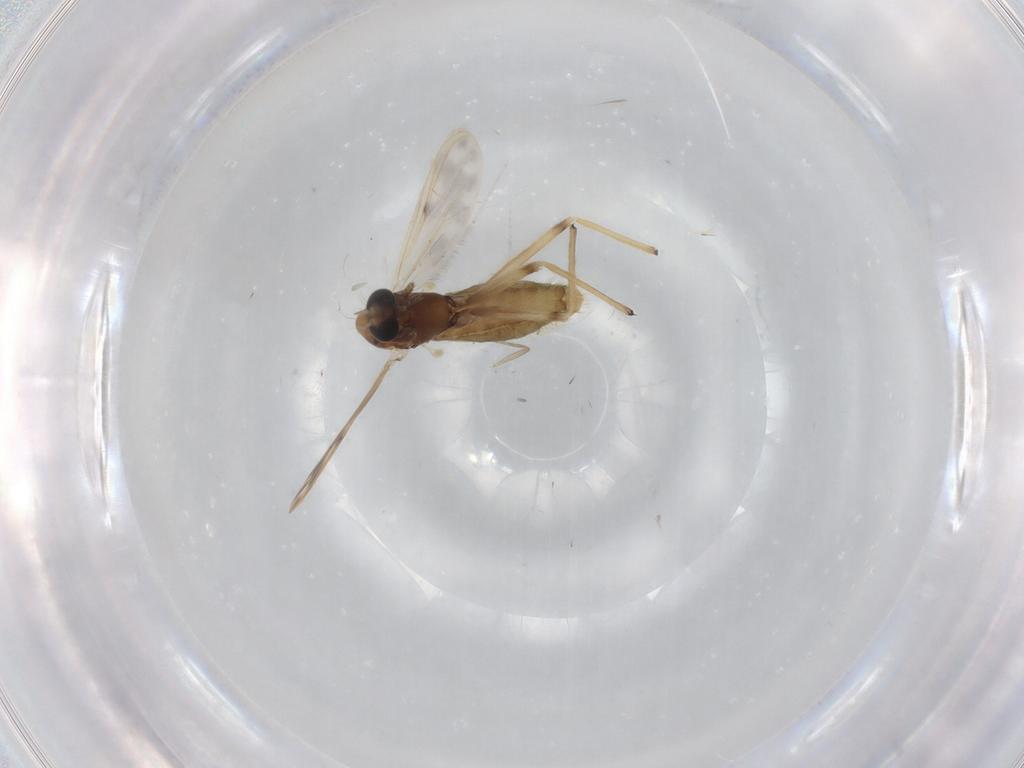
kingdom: Animalia
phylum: Arthropoda
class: Insecta
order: Diptera
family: Chironomidae
